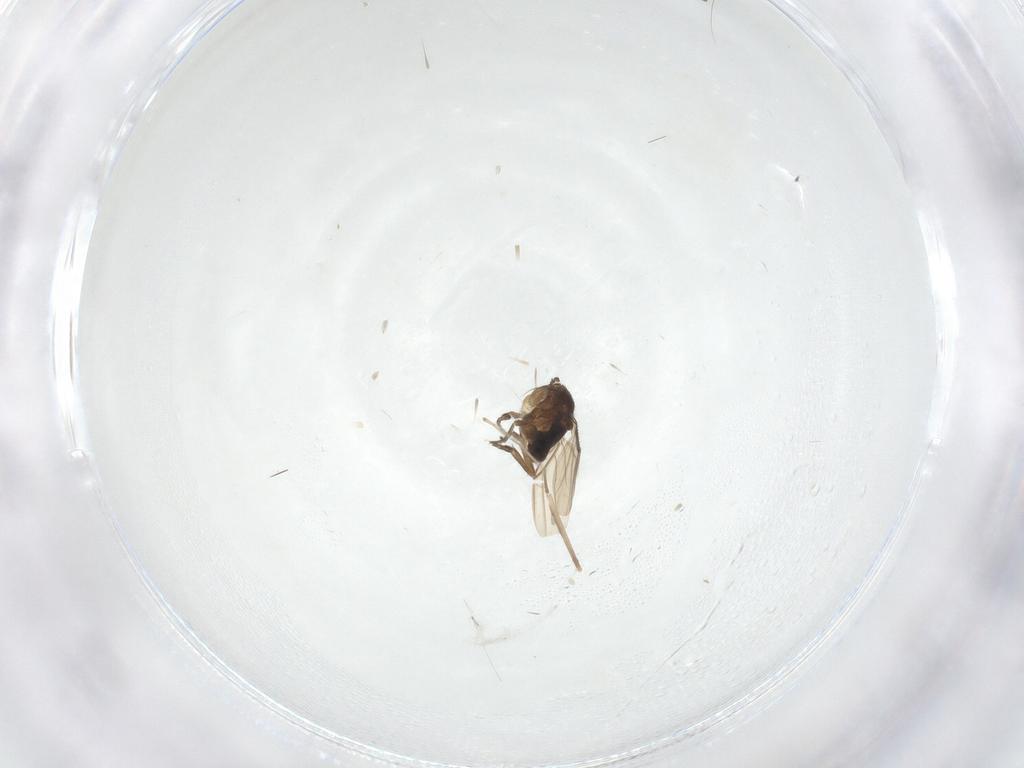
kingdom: Animalia
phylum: Arthropoda
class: Insecta
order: Diptera
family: Phoridae
